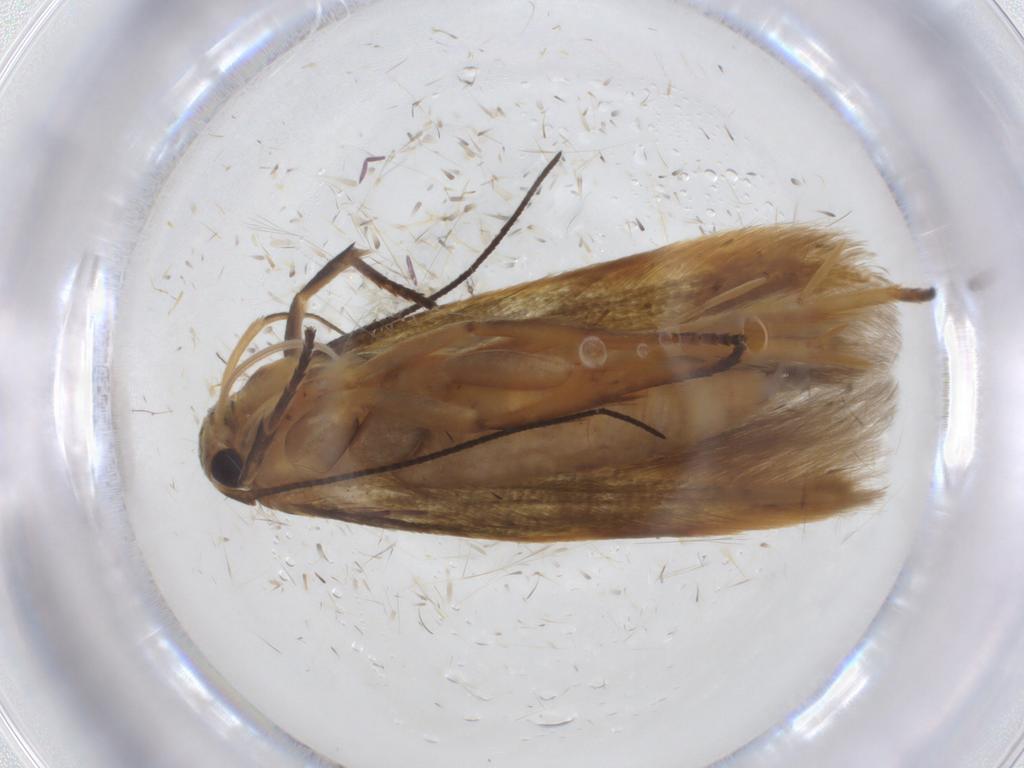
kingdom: Animalia
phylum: Arthropoda
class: Insecta
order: Lepidoptera
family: Stathmopodidae
